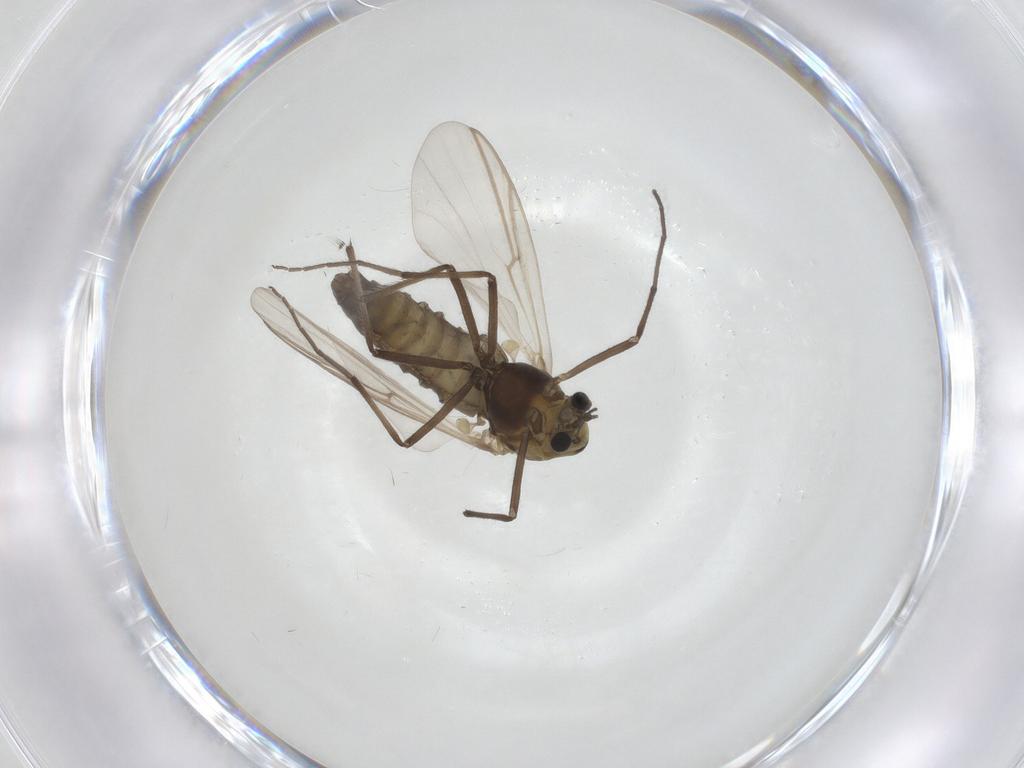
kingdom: Animalia
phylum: Arthropoda
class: Insecta
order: Diptera
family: Chironomidae
